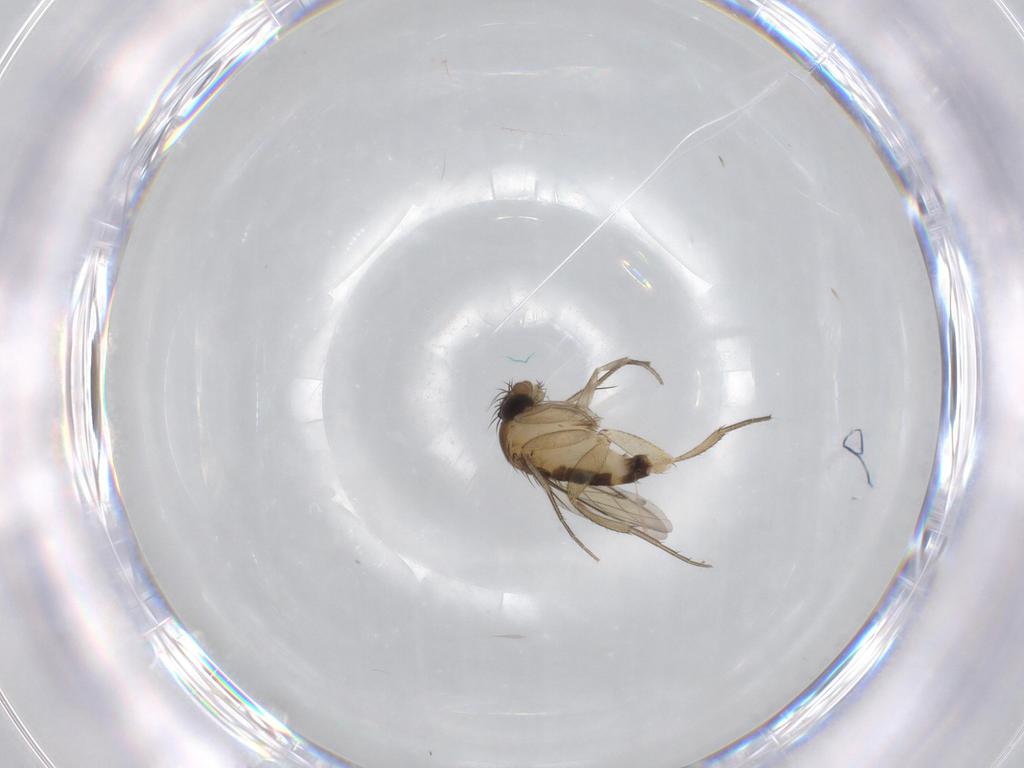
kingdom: Animalia
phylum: Arthropoda
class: Insecta
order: Diptera
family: Phoridae
